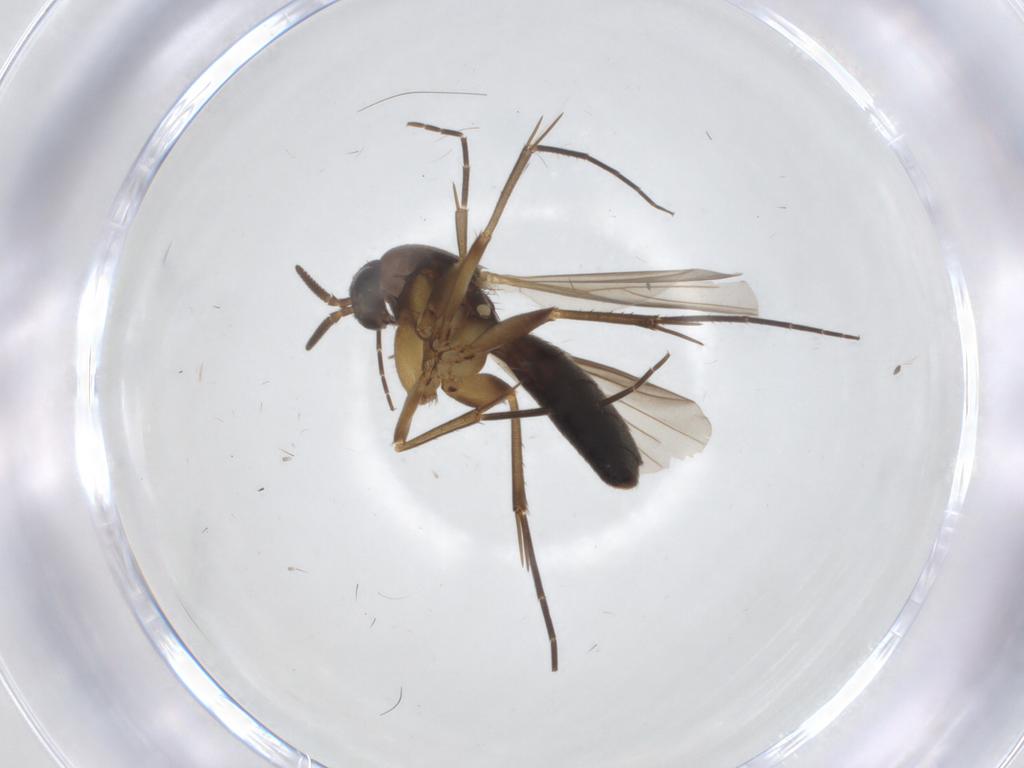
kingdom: Animalia
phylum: Arthropoda
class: Insecta
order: Diptera
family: Mycetophilidae
